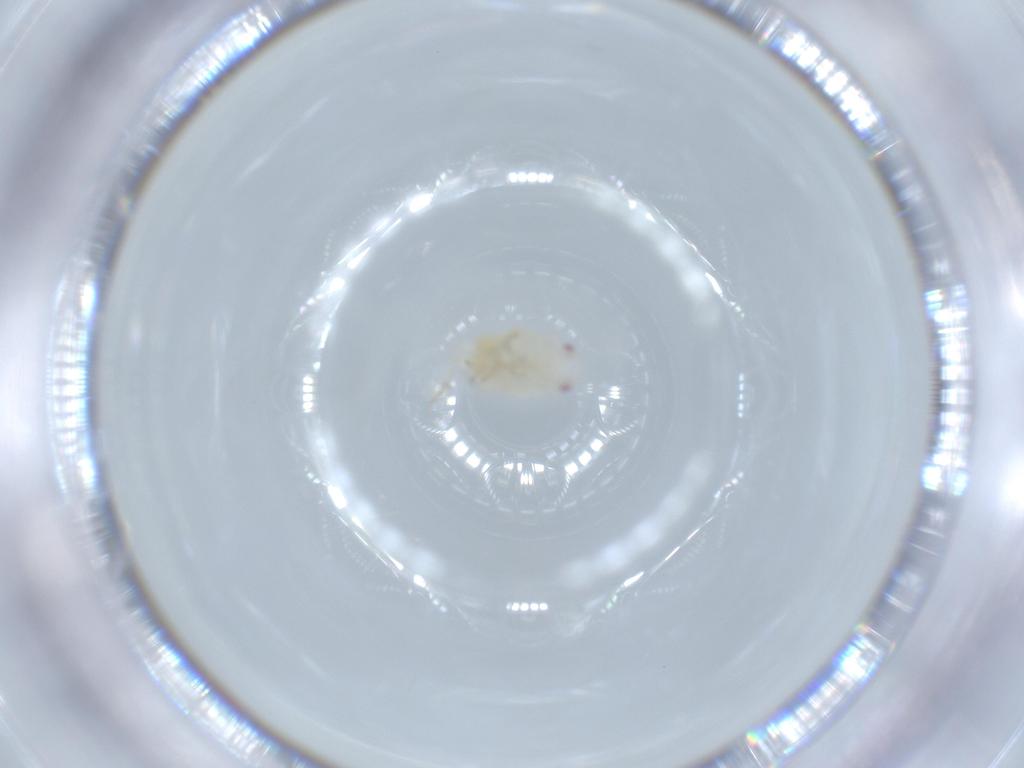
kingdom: Animalia
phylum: Arthropoda
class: Insecta
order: Hemiptera
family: Flatidae
